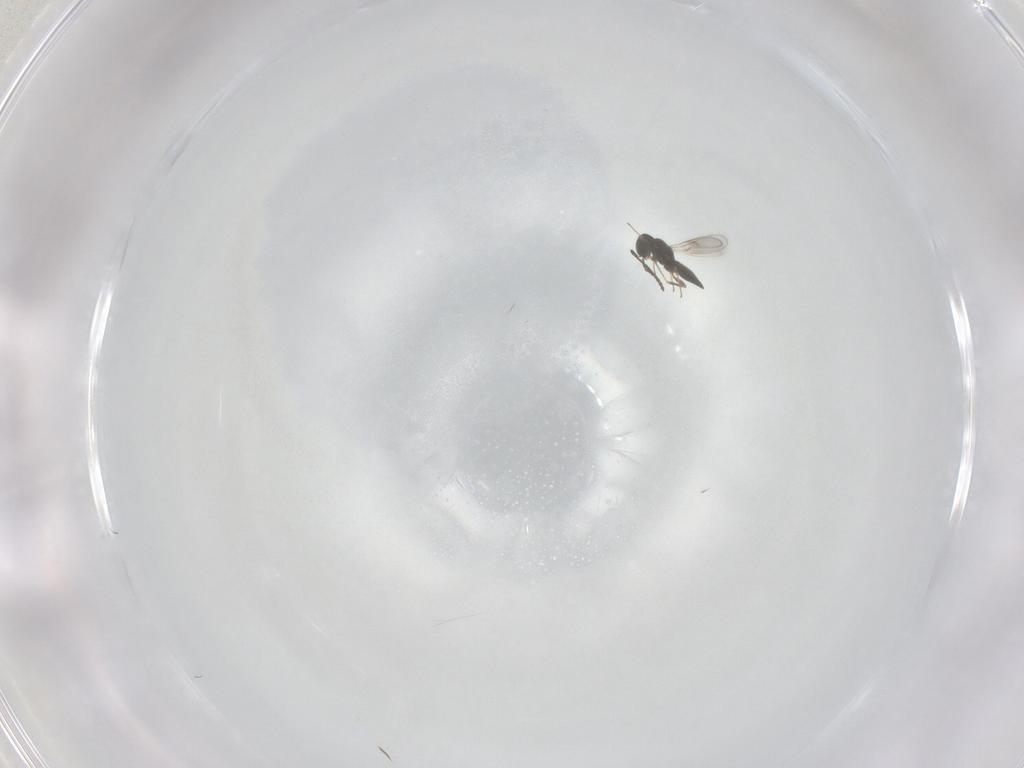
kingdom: Animalia
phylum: Arthropoda
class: Insecta
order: Hymenoptera
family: Scelionidae
